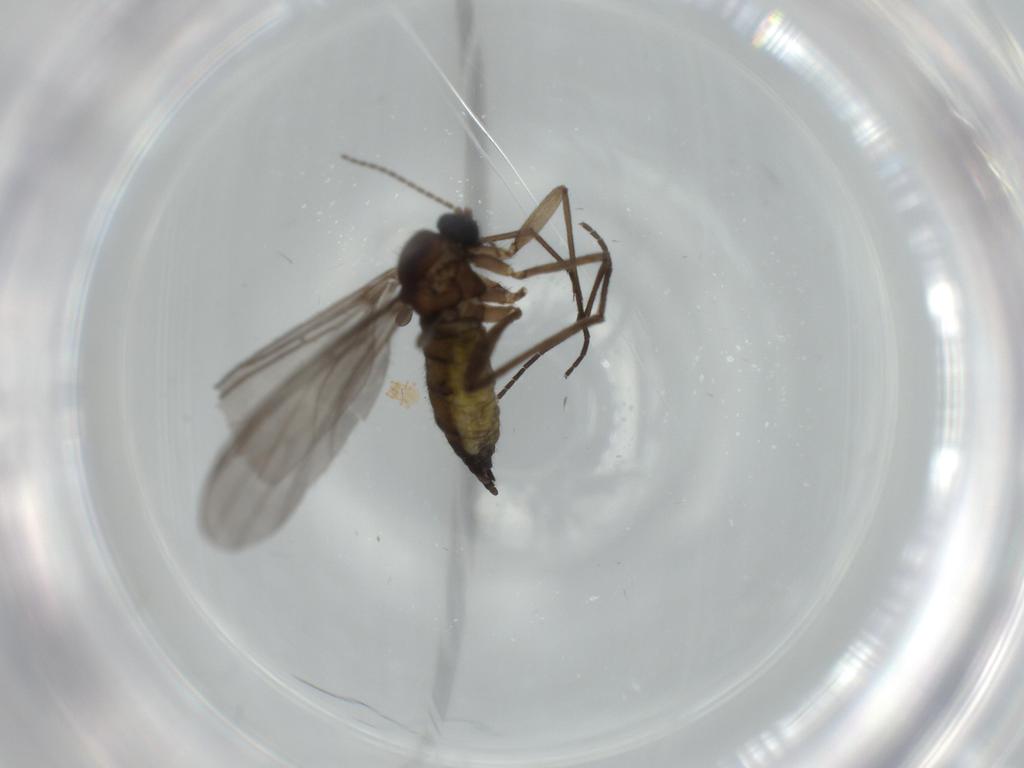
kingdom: Animalia
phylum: Arthropoda
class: Insecta
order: Diptera
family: Sciaridae
